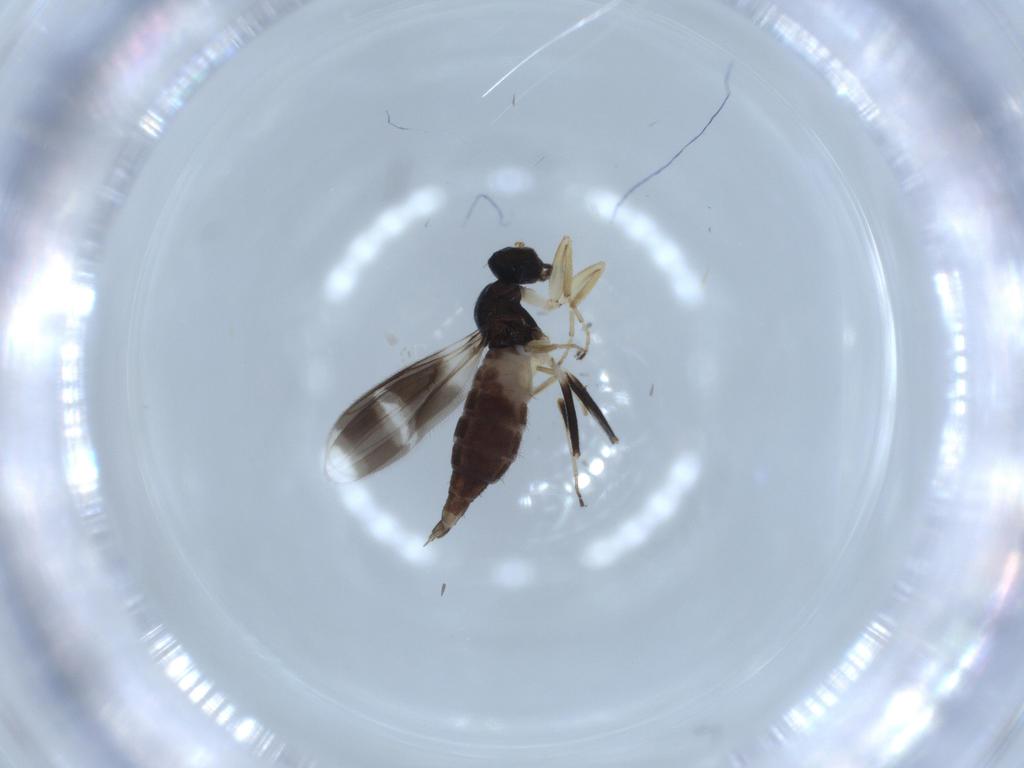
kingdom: Animalia
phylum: Arthropoda
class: Insecta
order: Diptera
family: Hybotidae
